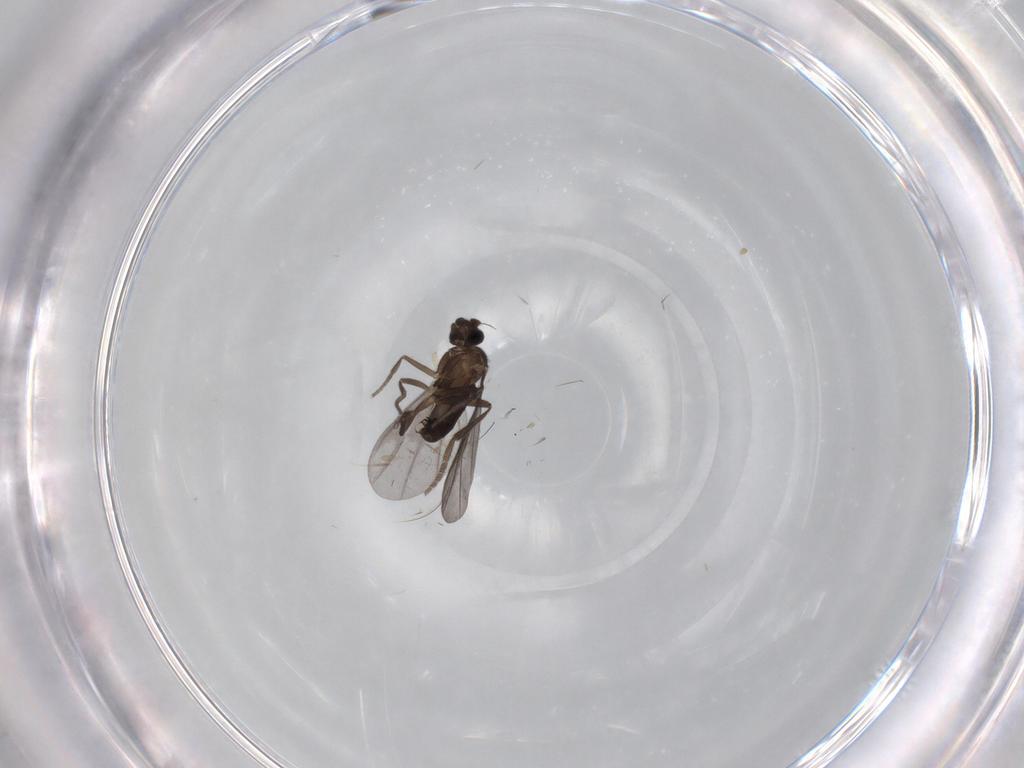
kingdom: Animalia
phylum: Arthropoda
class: Insecta
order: Diptera
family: Phoridae
